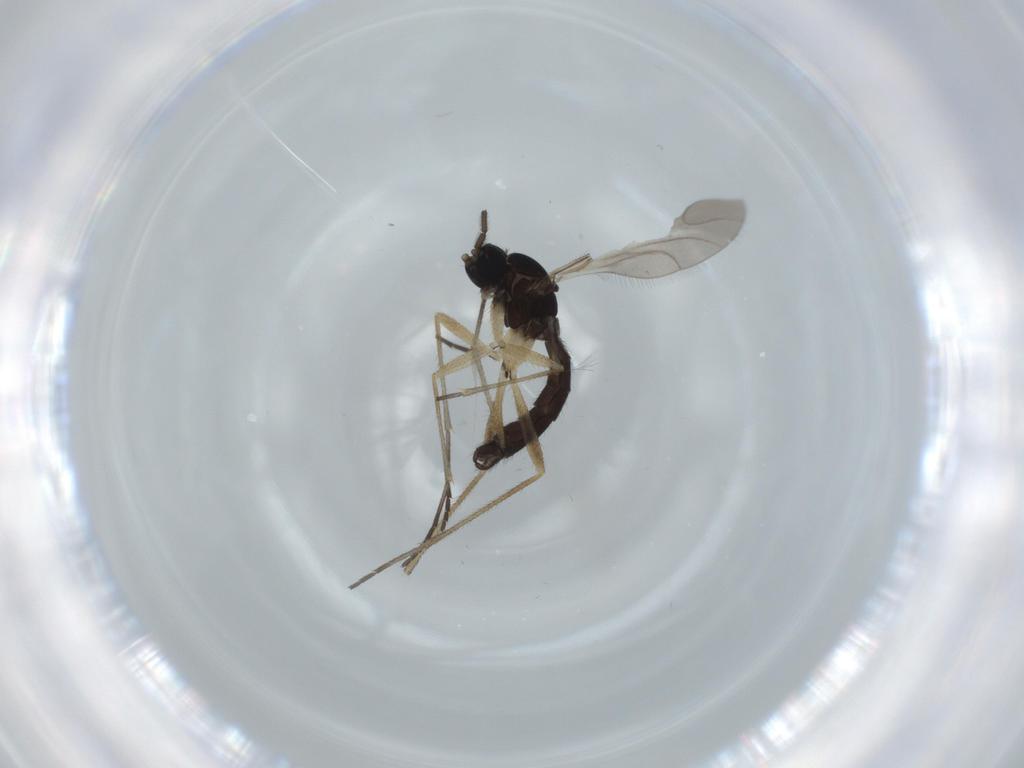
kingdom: Animalia
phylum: Arthropoda
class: Insecta
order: Diptera
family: Sciaridae
